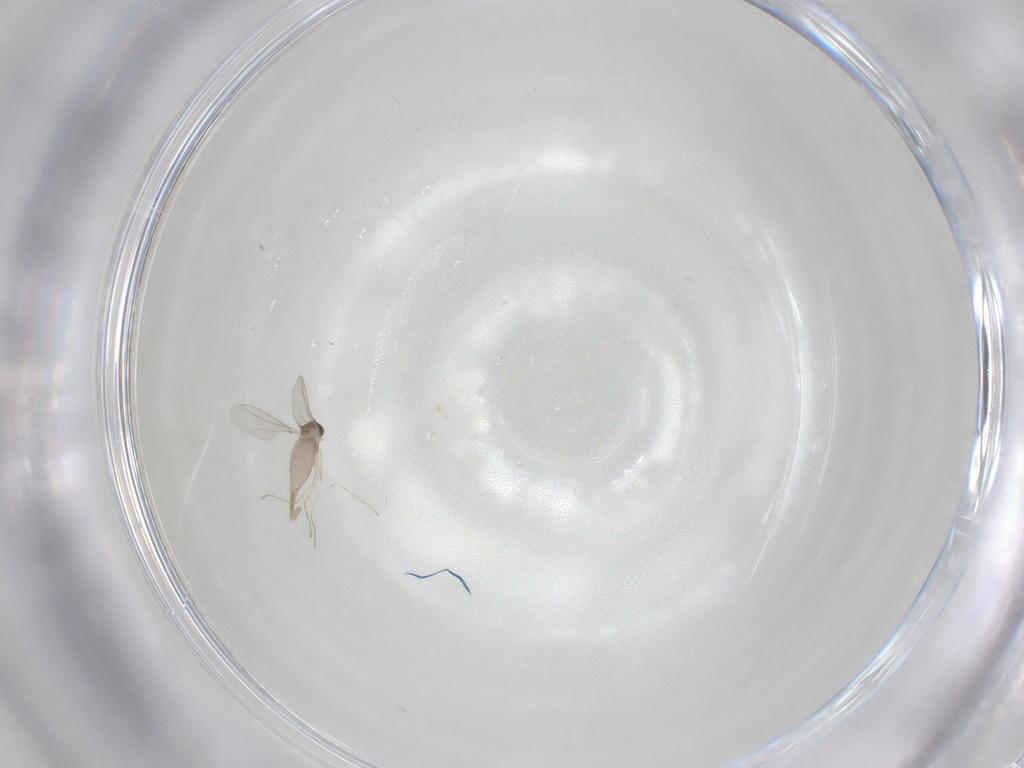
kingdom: Animalia
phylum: Arthropoda
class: Insecta
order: Diptera
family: Cecidomyiidae
